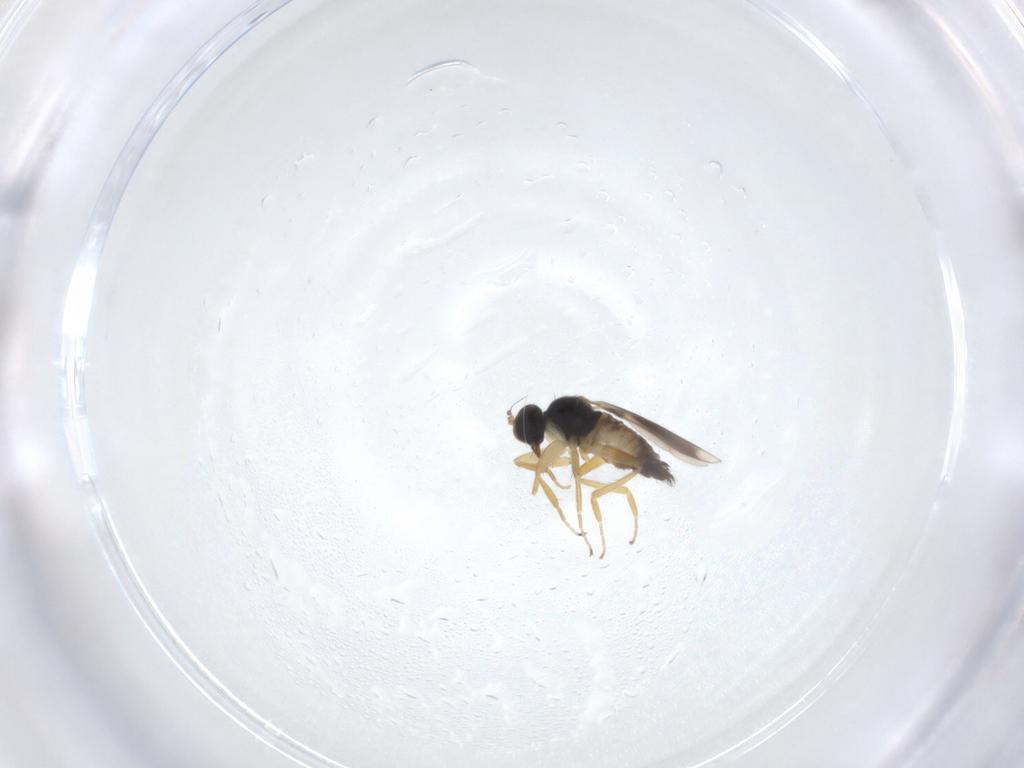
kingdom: Animalia
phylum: Arthropoda
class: Insecta
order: Diptera
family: Hybotidae
